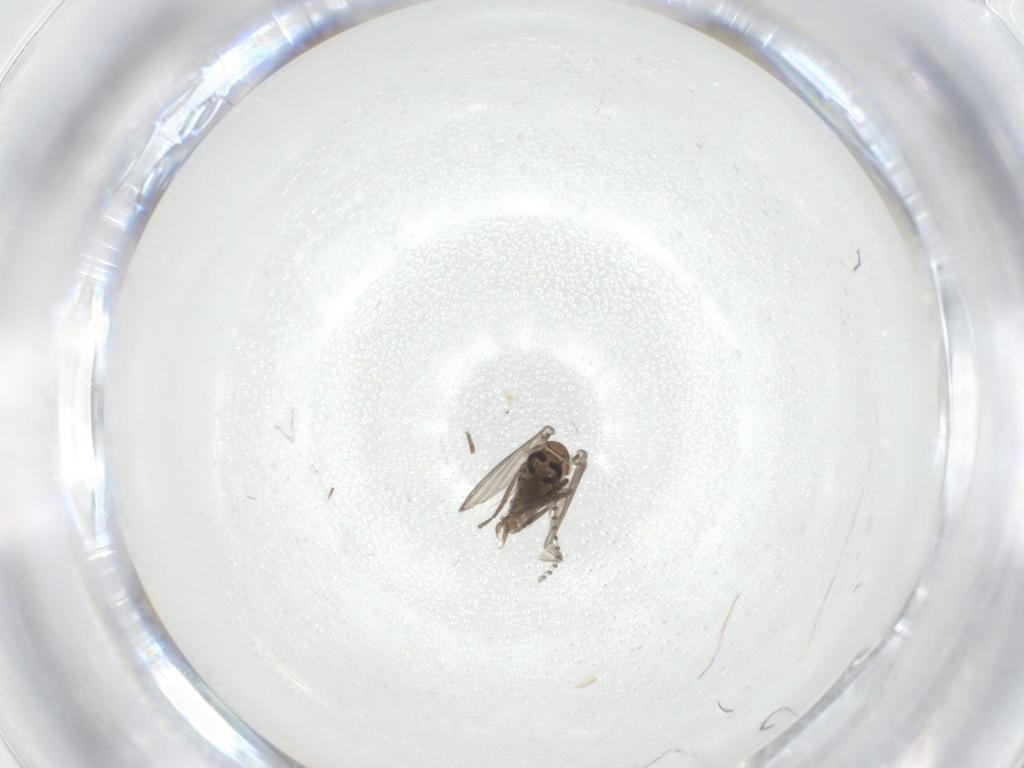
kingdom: Animalia
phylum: Arthropoda
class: Insecta
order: Diptera
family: Psychodidae
